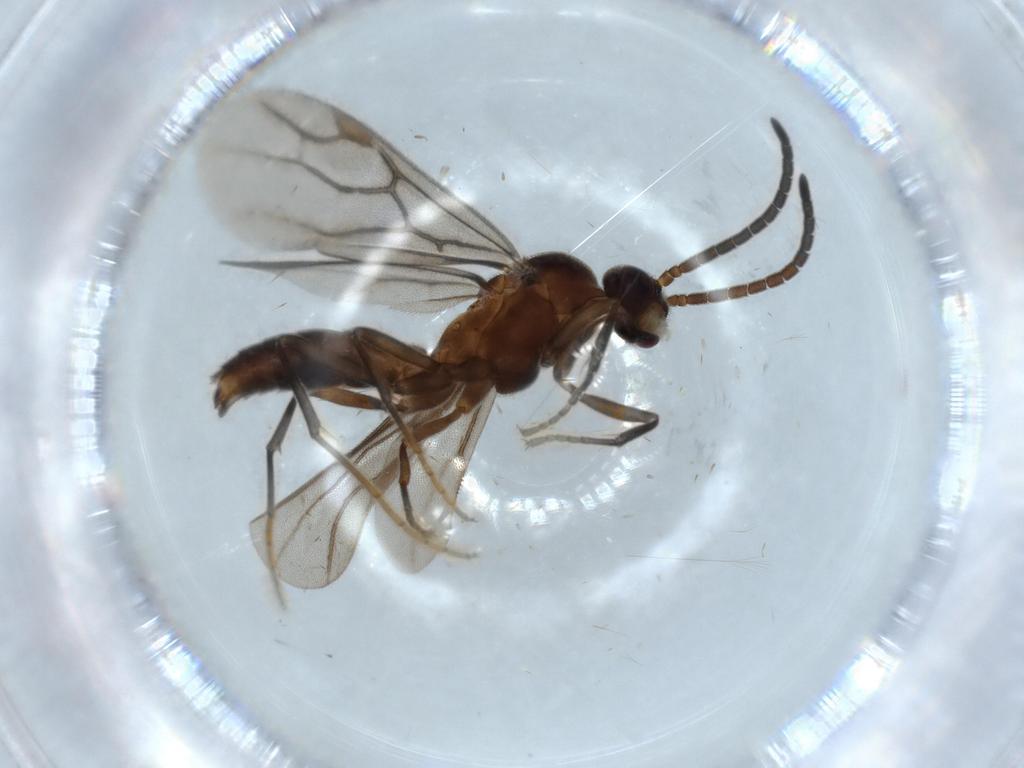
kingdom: Animalia
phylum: Arthropoda
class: Insecta
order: Hymenoptera
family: Formicidae
